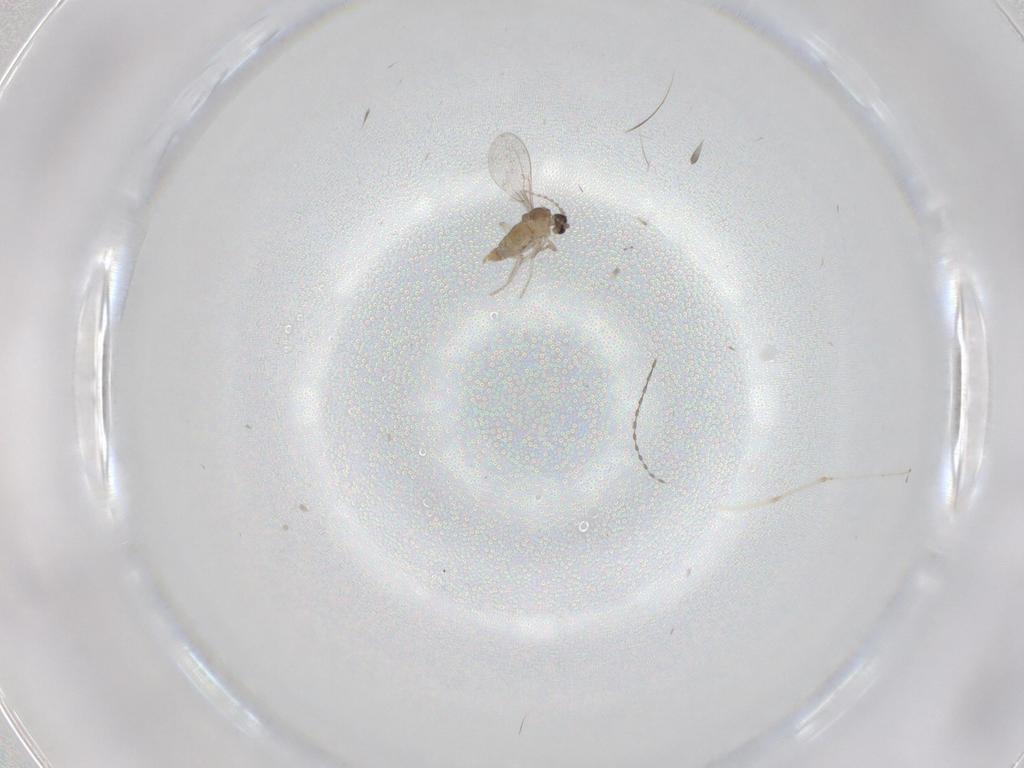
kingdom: Animalia
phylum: Arthropoda
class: Insecta
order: Diptera
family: Cecidomyiidae
